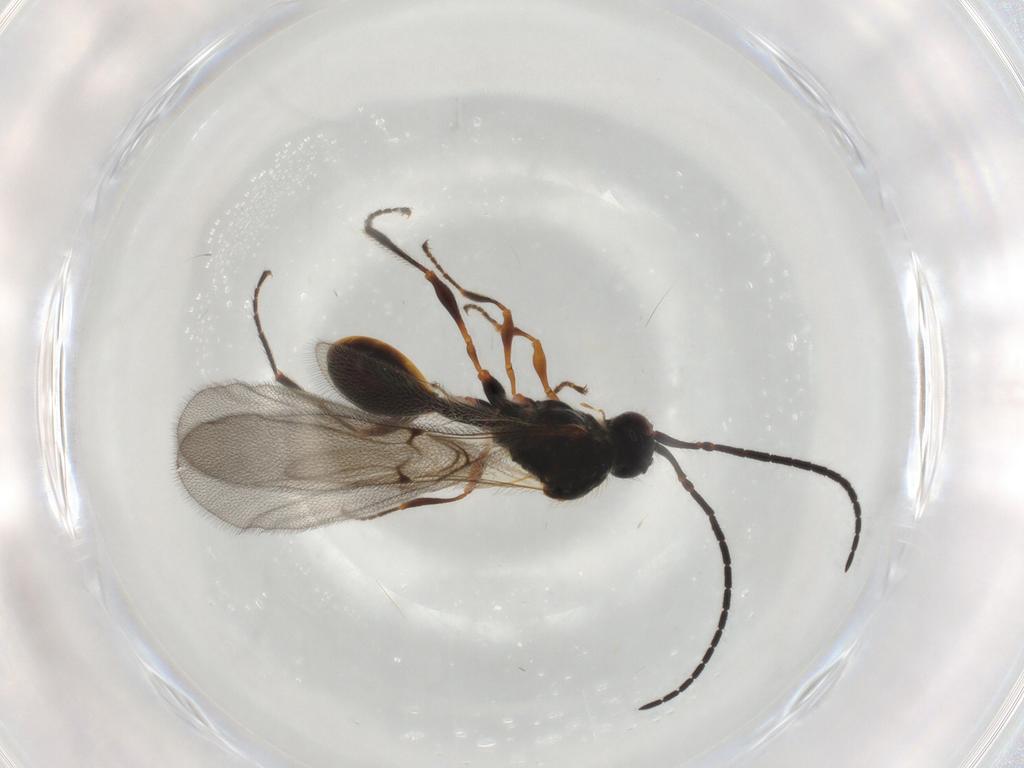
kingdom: Animalia
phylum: Arthropoda
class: Insecta
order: Hymenoptera
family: Diapriidae
